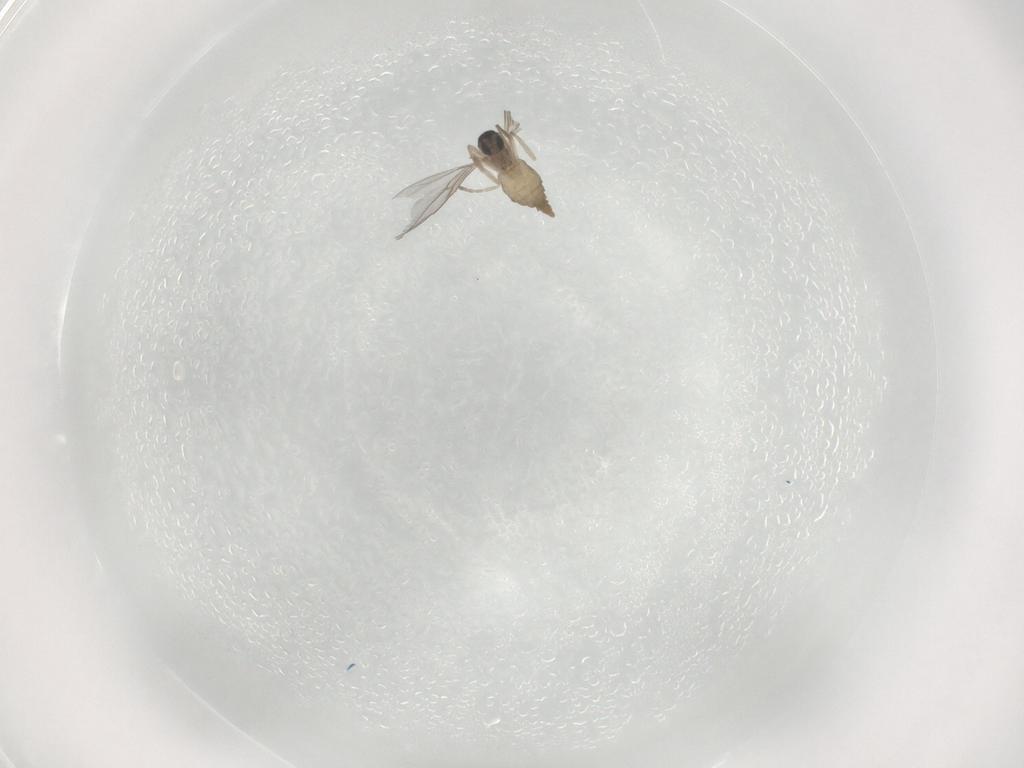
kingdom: Animalia
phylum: Arthropoda
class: Insecta
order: Diptera
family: Cecidomyiidae
